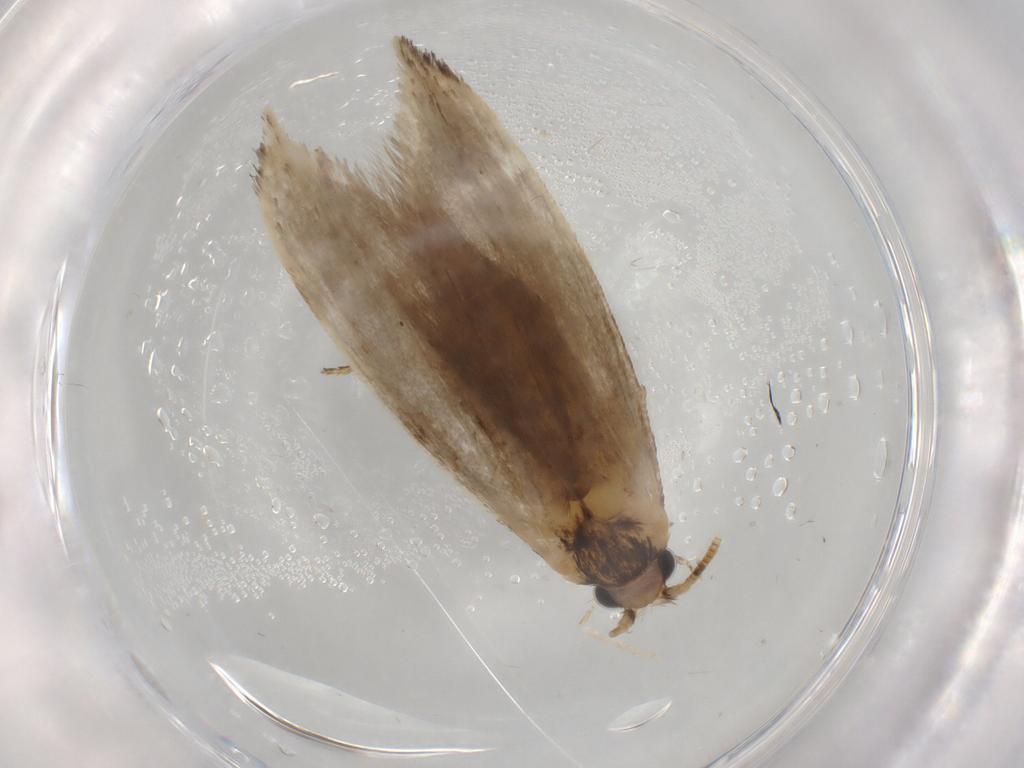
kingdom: Animalia
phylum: Arthropoda
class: Insecta
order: Lepidoptera
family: Tineidae
